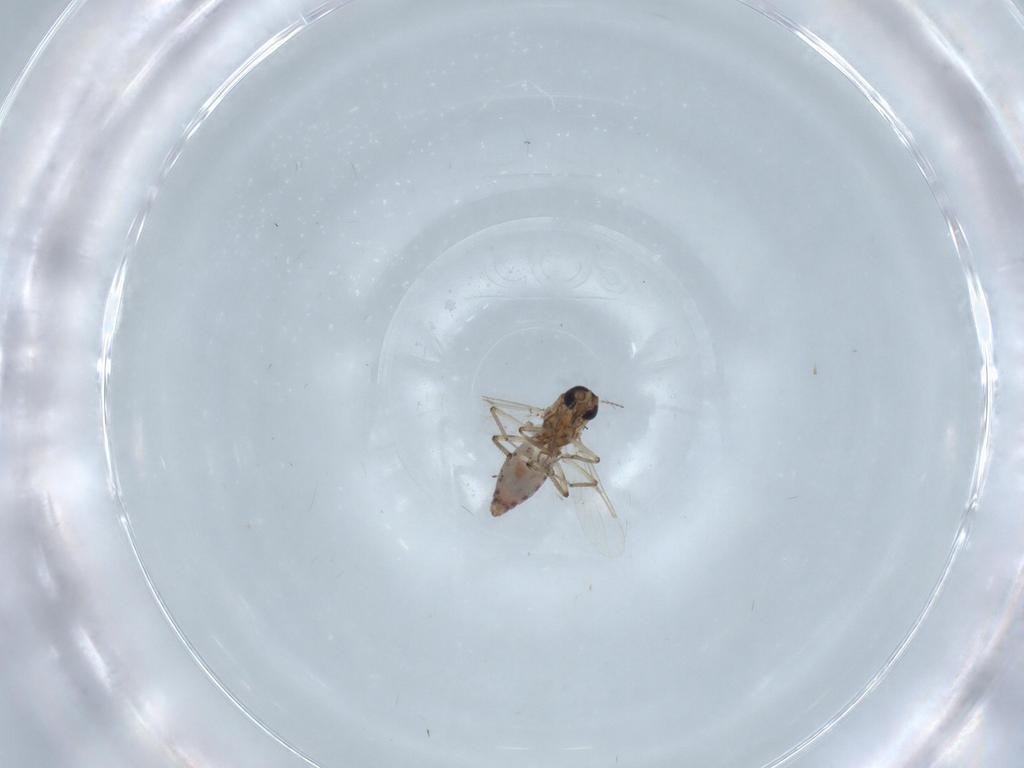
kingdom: Animalia
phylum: Arthropoda
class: Insecta
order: Diptera
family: Ceratopogonidae
